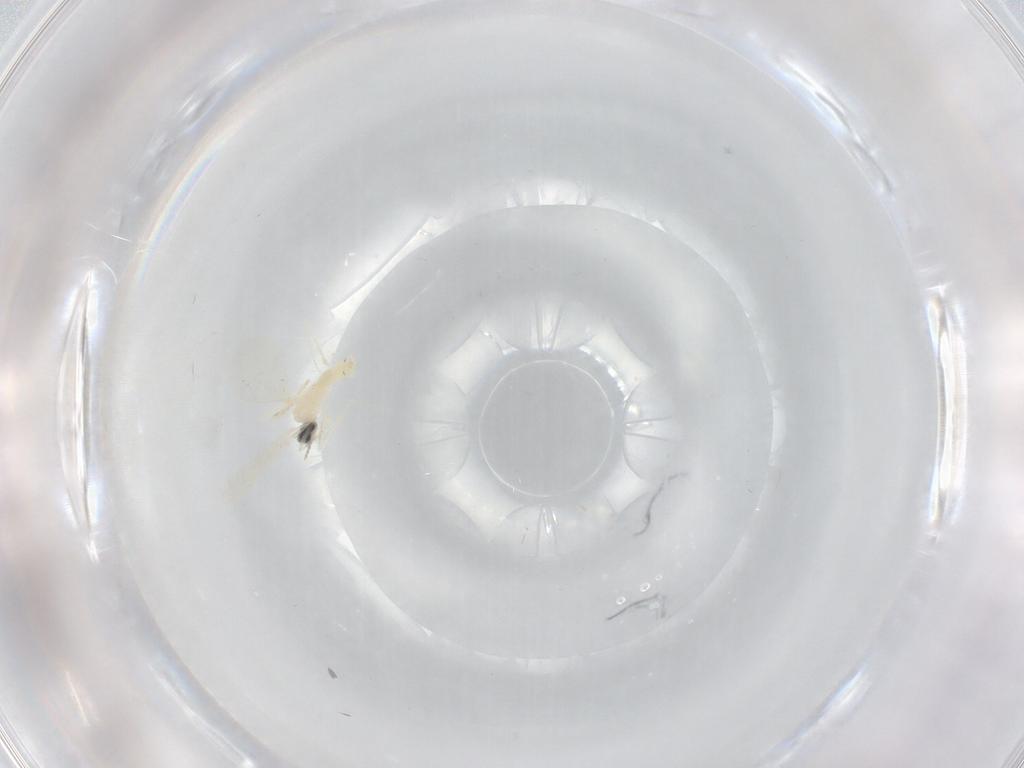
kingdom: Animalia
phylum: Arthropoda
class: Insecta
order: Diptera
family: Cecidomyiidae
